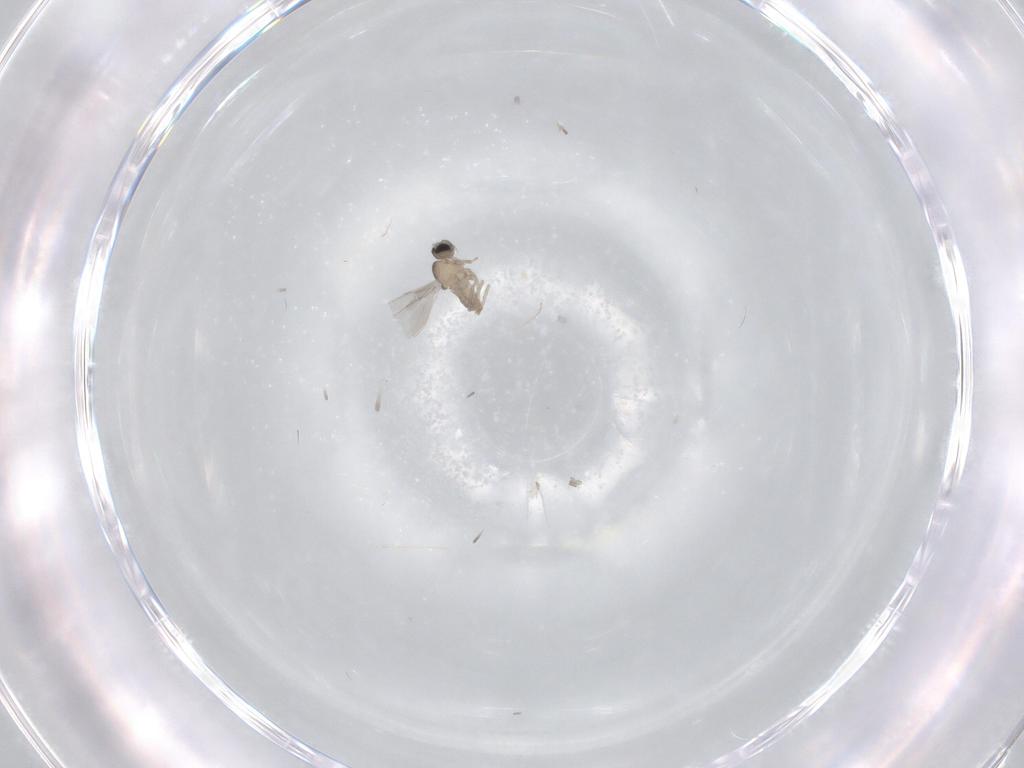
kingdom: Animalia
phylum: Arthropoda
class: Insecta
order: Diptera
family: Cecidomyiidae
